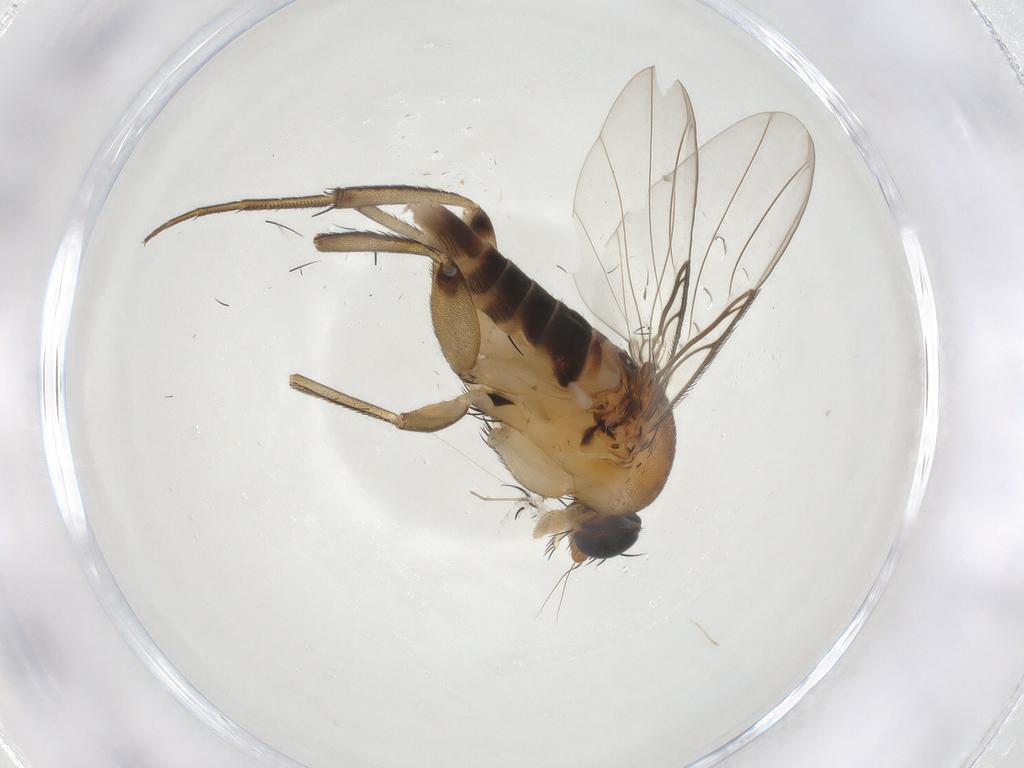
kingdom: Animalia
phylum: Arthropoda
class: Insecta
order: Diptera
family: Phoridae
